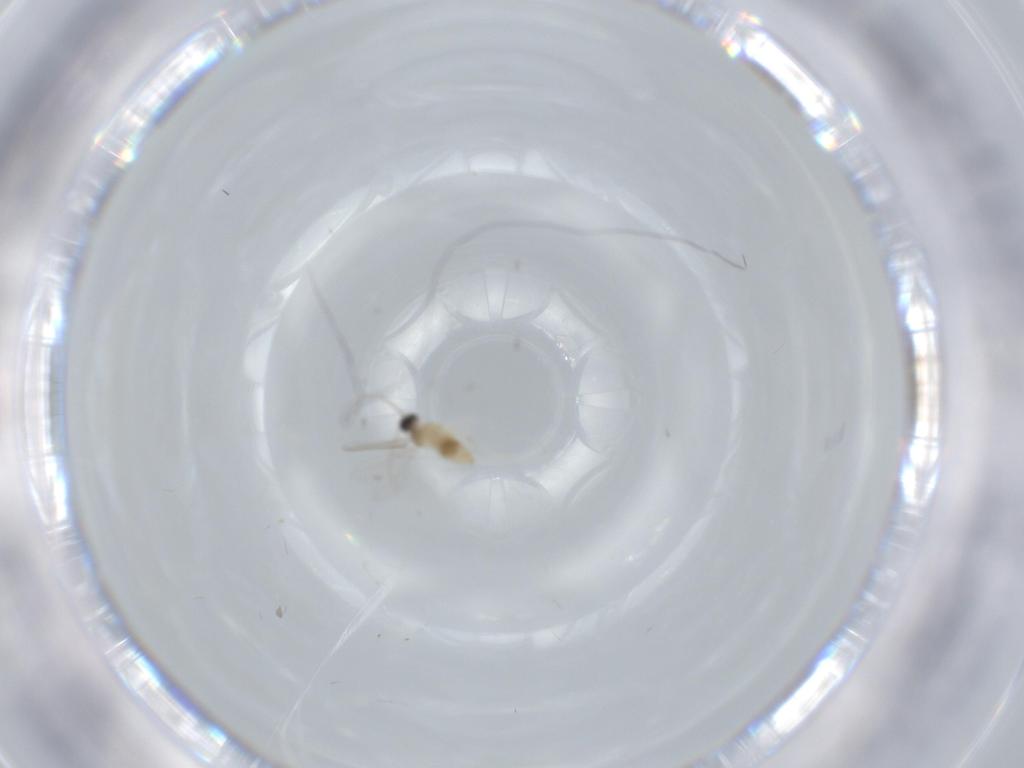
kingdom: Animalia
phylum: Arthropoda
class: Insecta
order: Diptera
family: Cecidomyiidae
